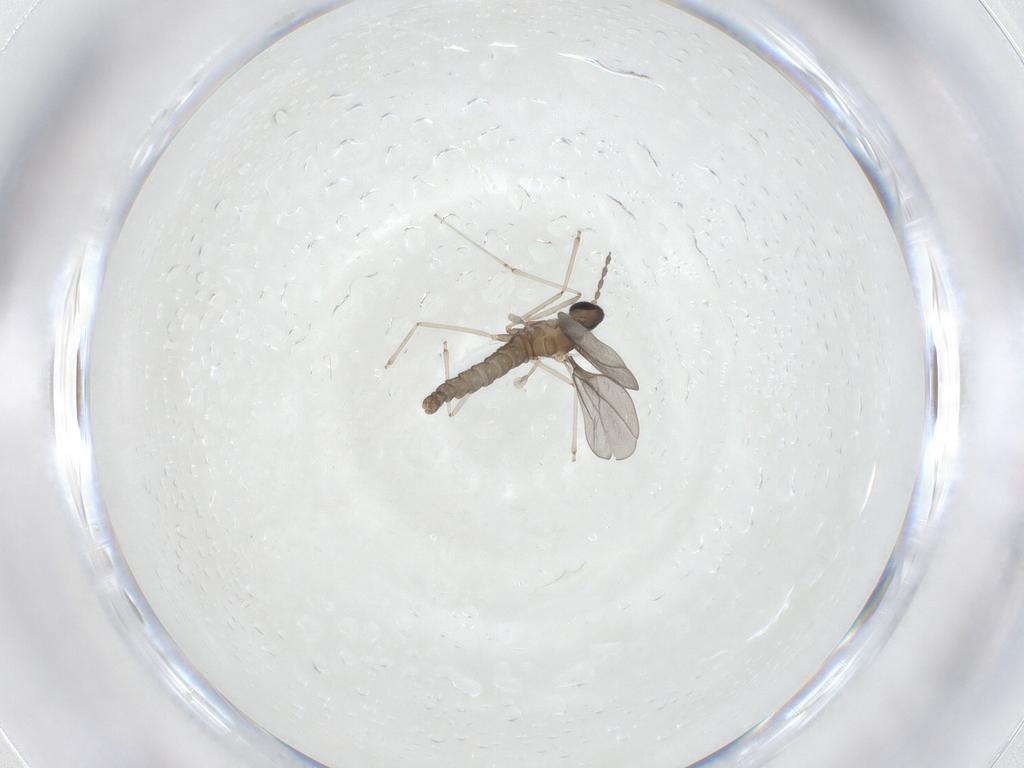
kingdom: Animalia
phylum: Arthropoda
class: Insecta
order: Diptera
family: Cecidomyiidae
